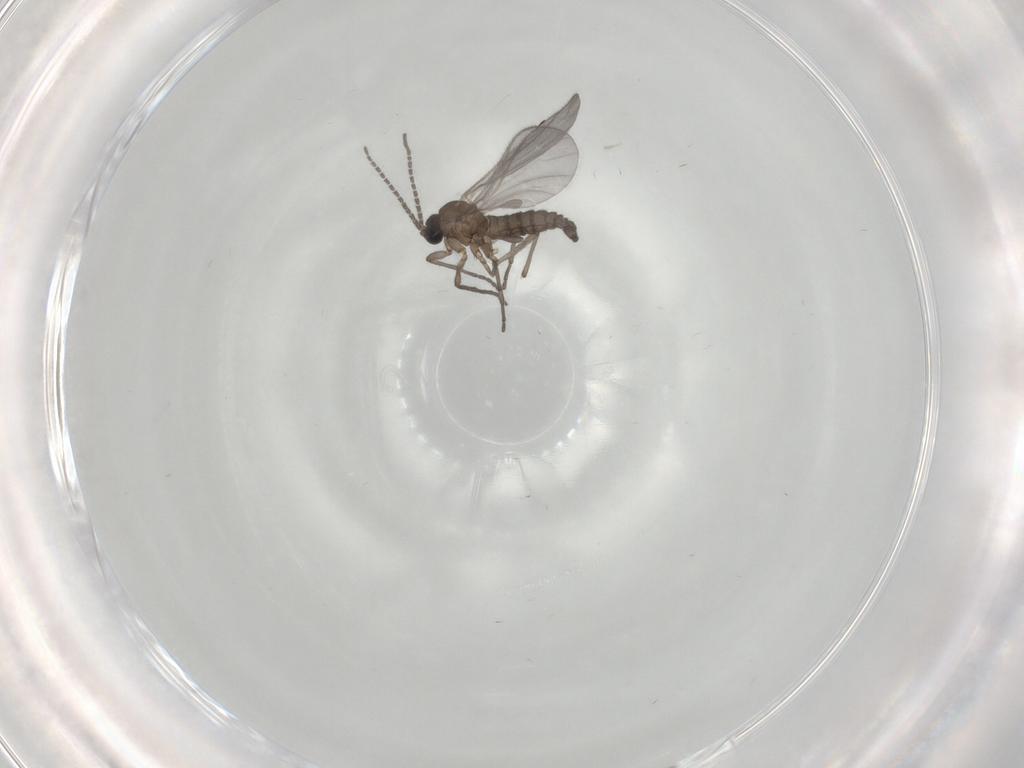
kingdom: Animalia
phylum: Arthropoda
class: Insecta
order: Diptera
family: Sciaridae
